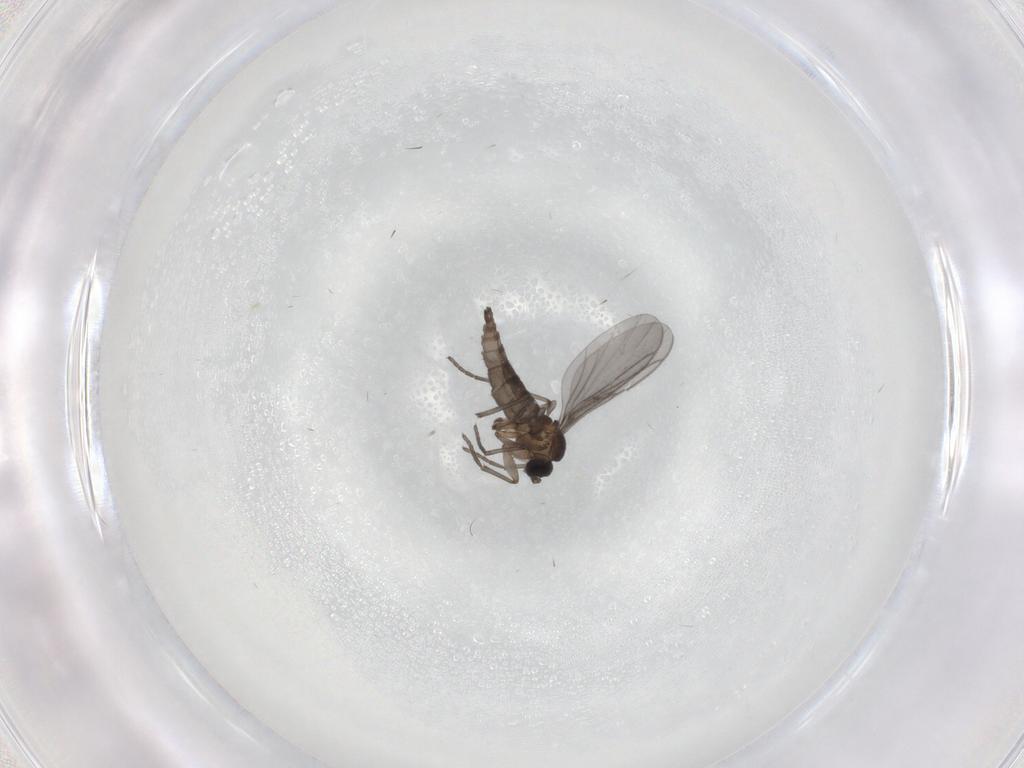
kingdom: Animalia
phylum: Arthropoda
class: Insecta
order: Diptera
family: Sciaridae
